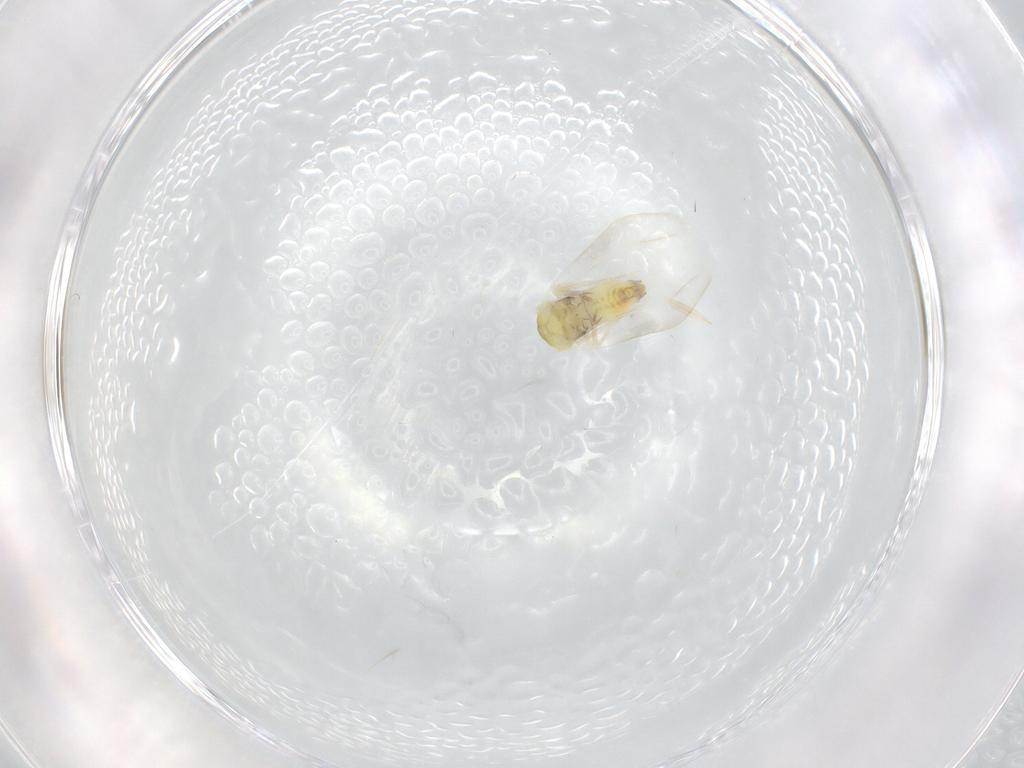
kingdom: Animalia
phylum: Arthropoda
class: Insecta
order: Hemiptera
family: Aleyrodidae
